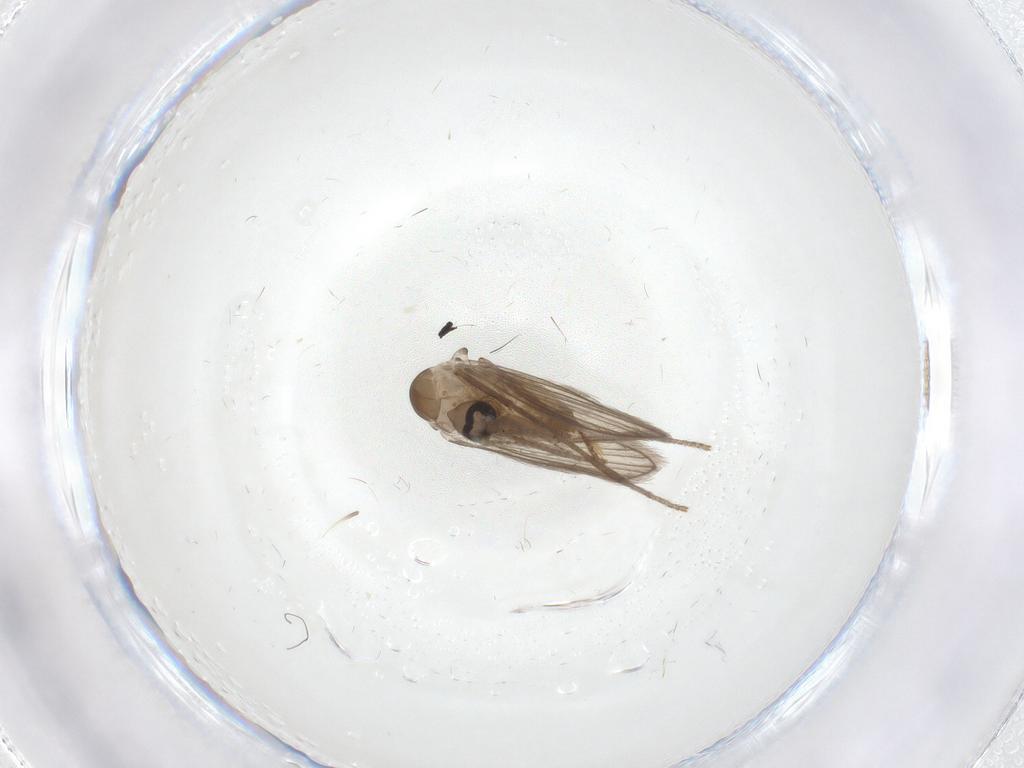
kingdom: Animalia
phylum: Arthropoda
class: Insecta
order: Diptera
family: Psychodidae
